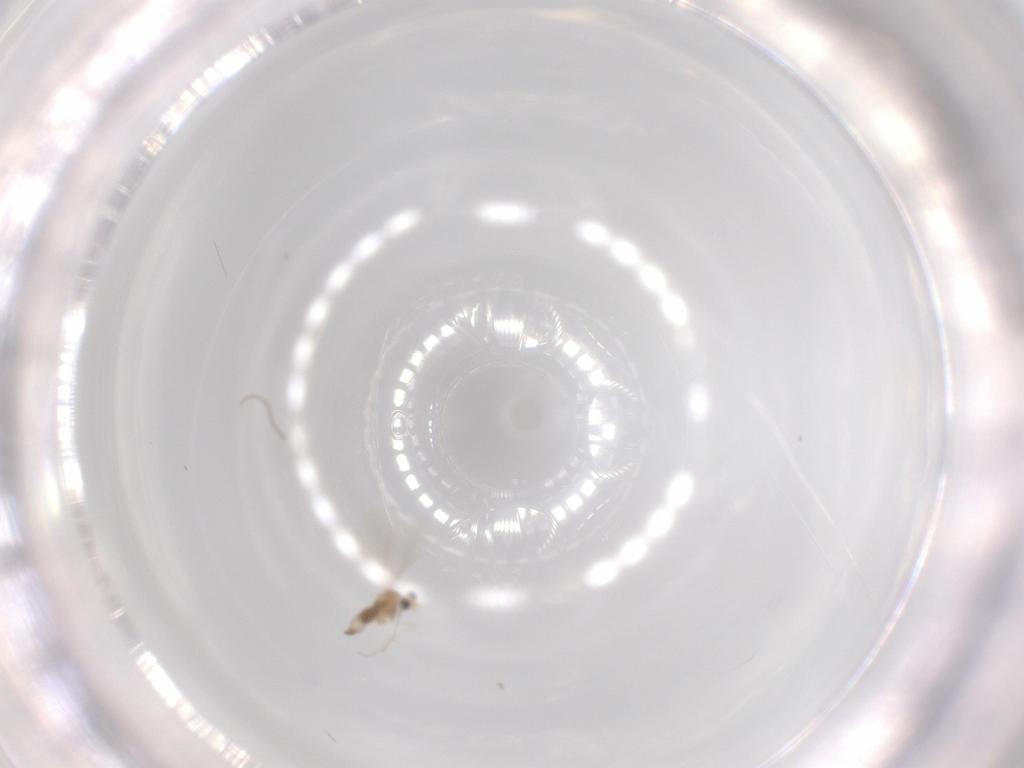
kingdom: Animalia
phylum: Arthropoda
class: Insecta
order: Diptera
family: Cecidomyiidae
